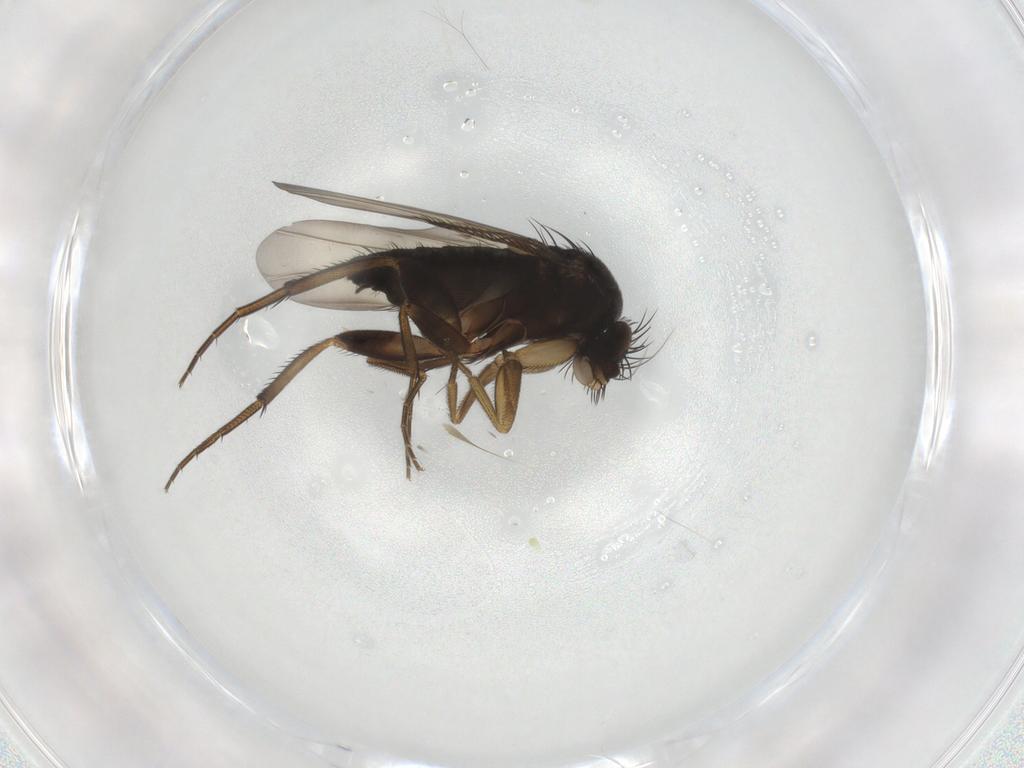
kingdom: Animalia
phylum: Arthropoda
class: Insecta
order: Diptera
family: Phoridae
